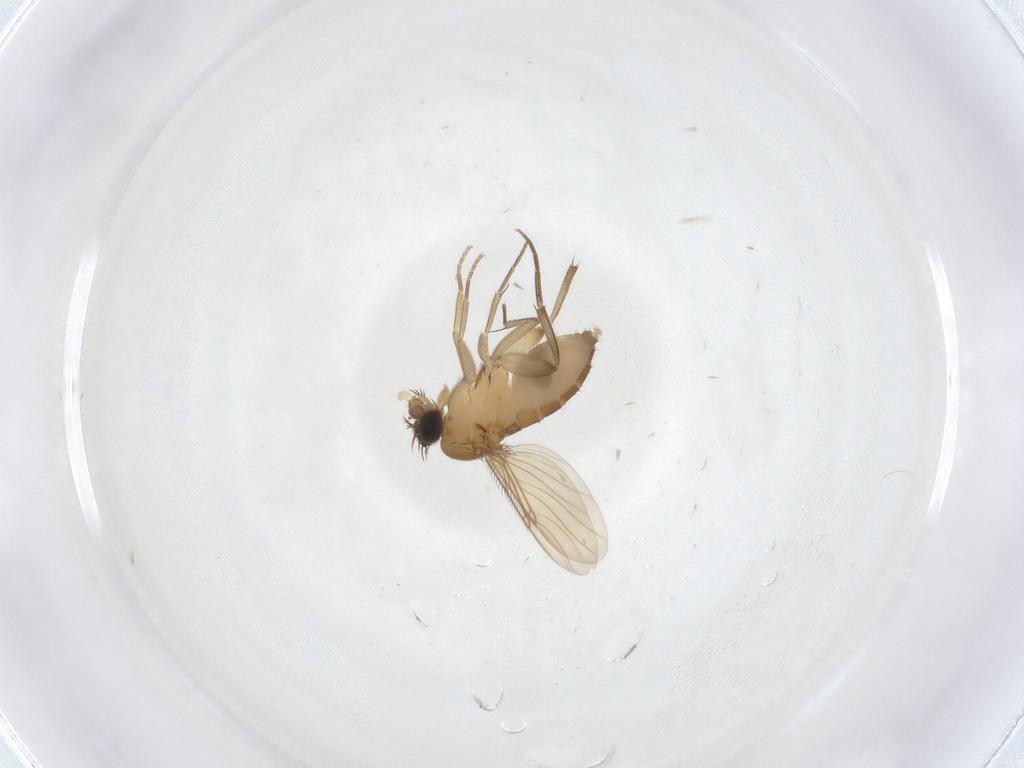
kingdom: Animalia
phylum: Arthropoda
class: Insecta
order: Diptera
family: Phoridae
